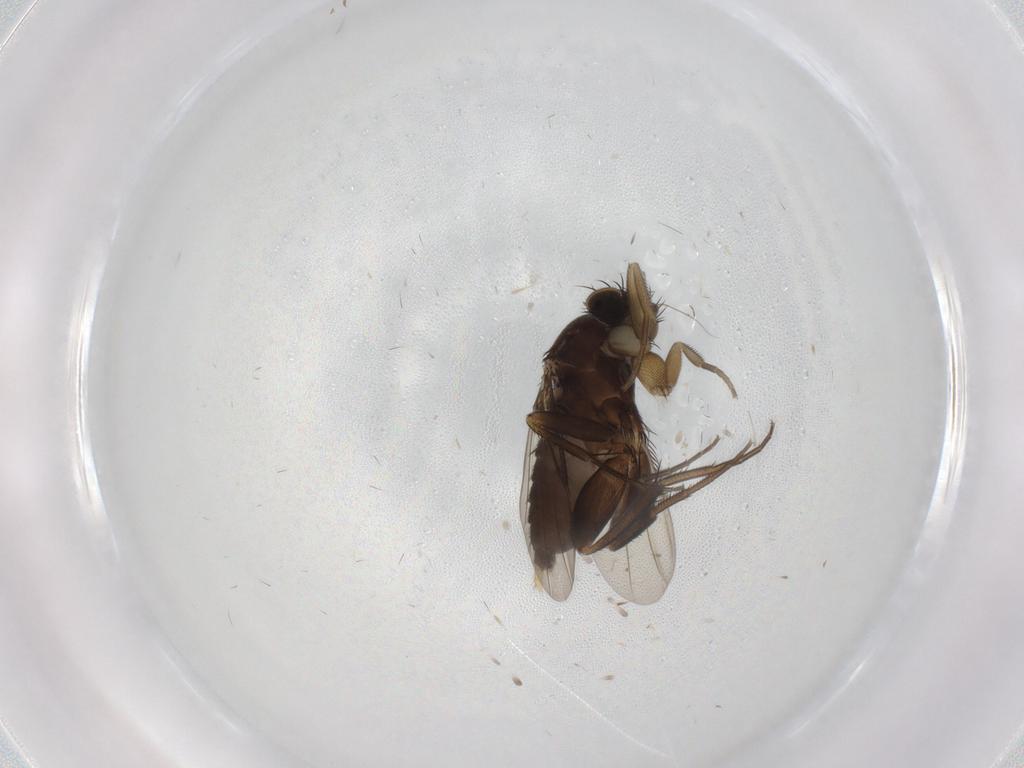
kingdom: Animalia
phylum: Arthropoda
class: Insecta
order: Diptera
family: Phoridae
